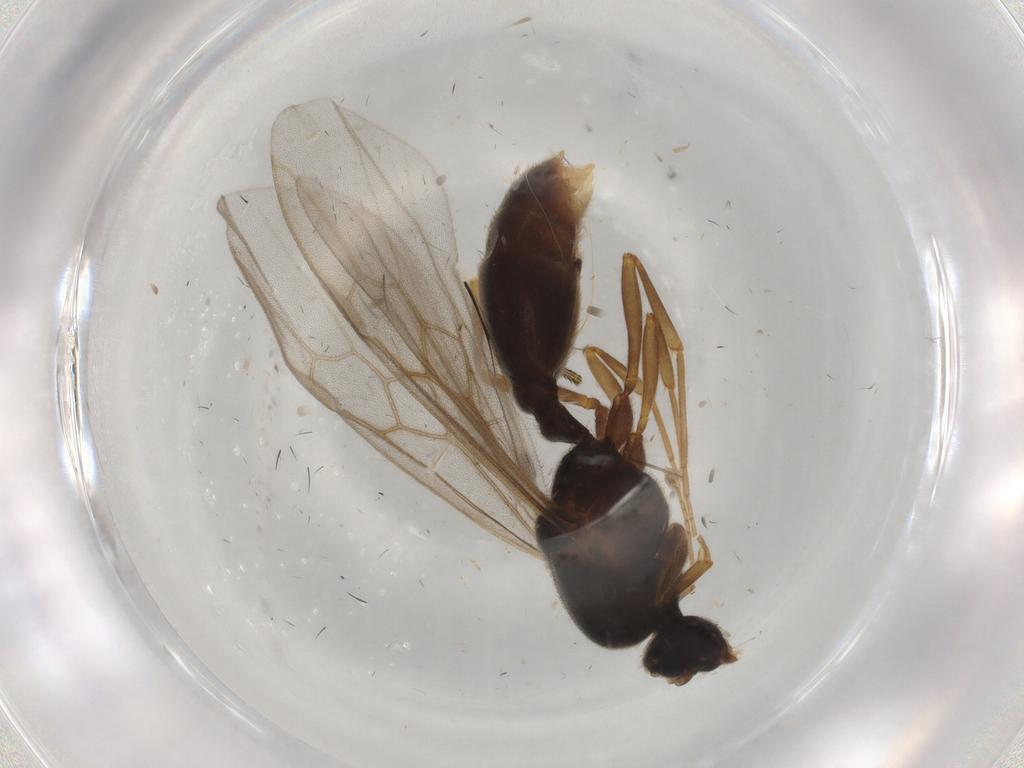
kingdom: Animalia
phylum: Arthropoda
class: Insecta
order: Hymenoptera
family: Formicidae
